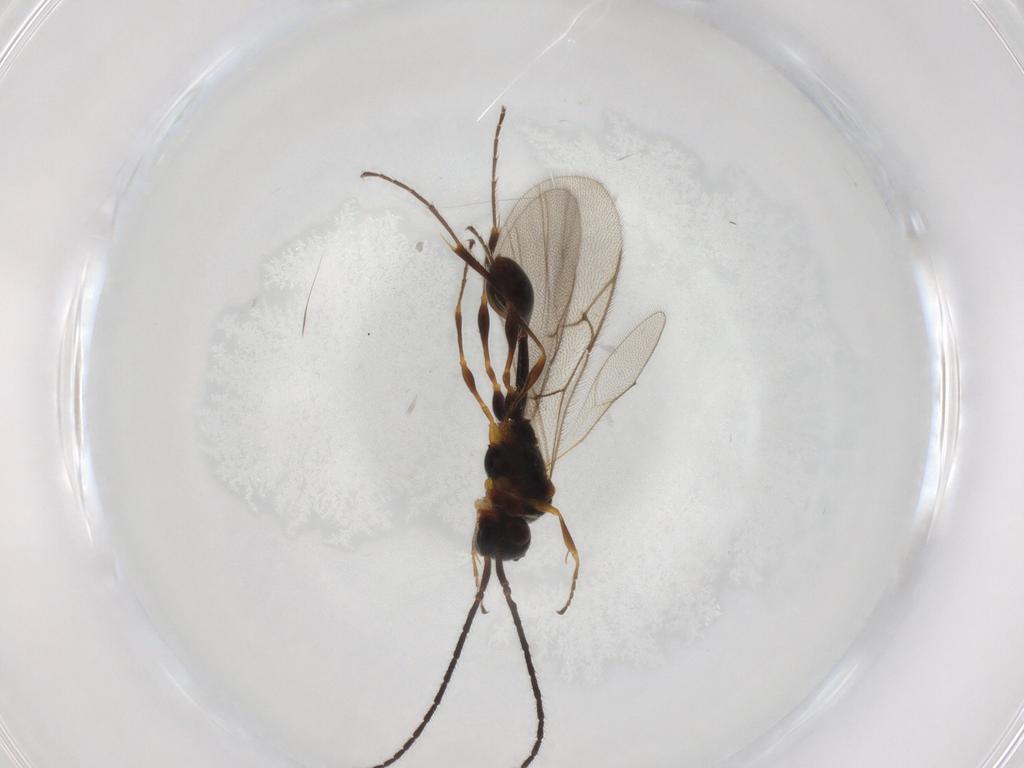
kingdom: Animalia
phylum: Arthropoda
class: Insecta
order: Hymenoptera
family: Diapriidae
